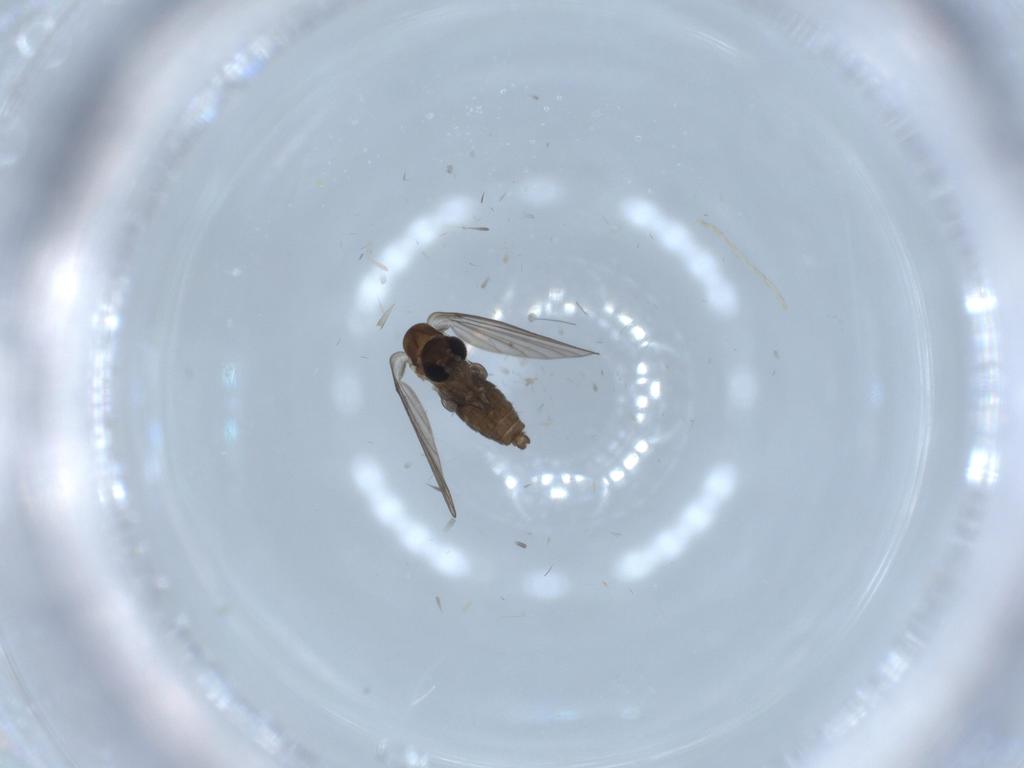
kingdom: Animalia
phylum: Arthropoda
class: Insecta
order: Diptera
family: Psychodidae
